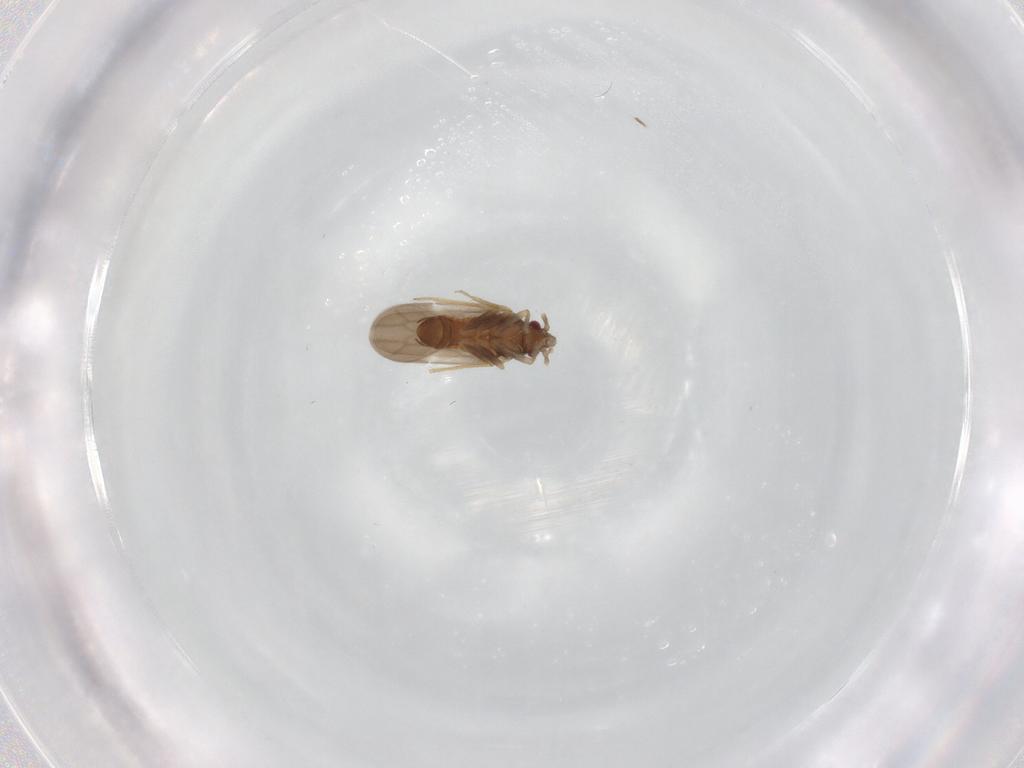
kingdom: Animalia
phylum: Arthropoda
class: Insecta
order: Hemiptera
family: Ceratocombidae
